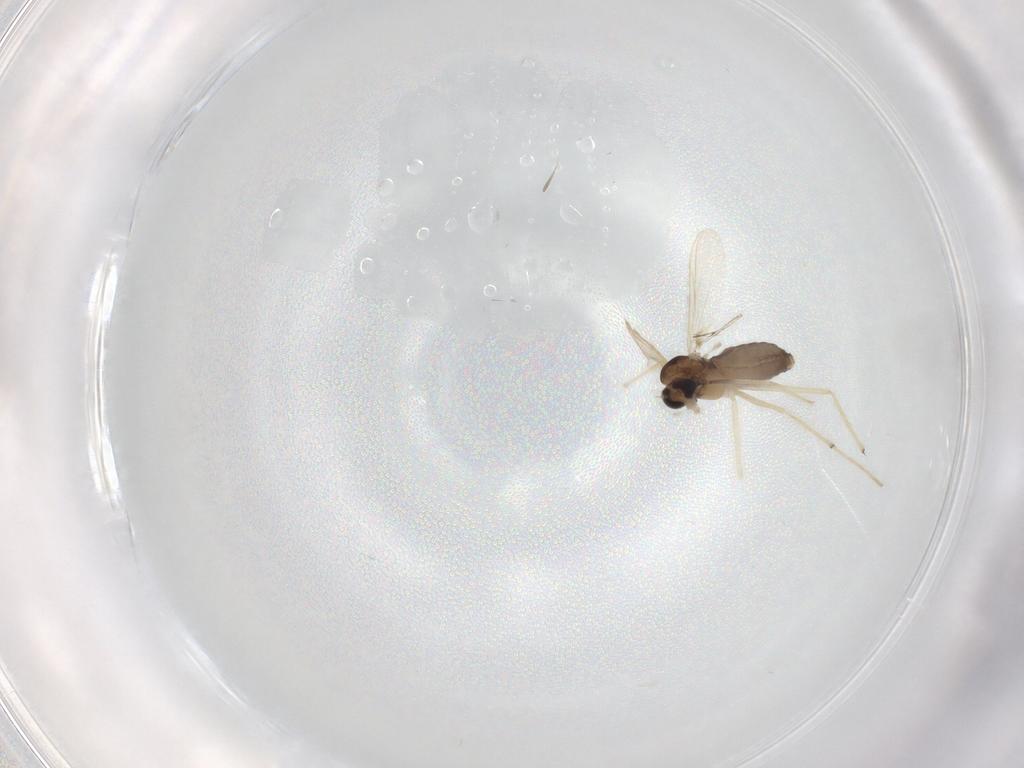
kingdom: Animalia
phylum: Arthropoda
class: Insecta
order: Diptera
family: Chironomidae
